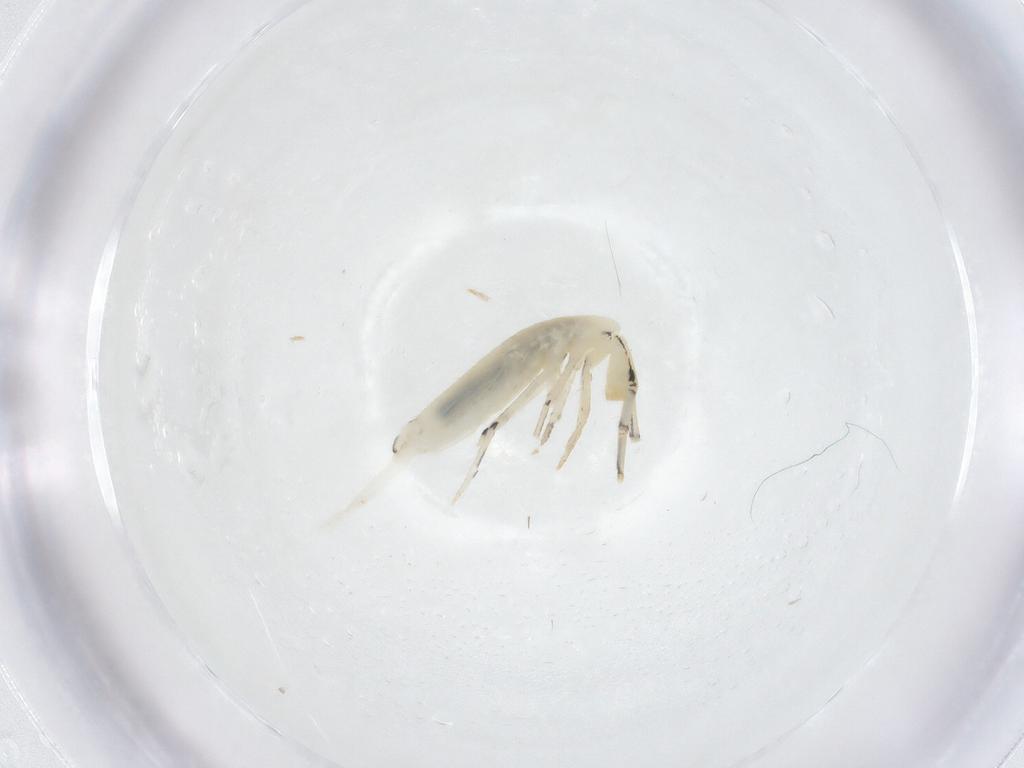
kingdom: Animalia
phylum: Arthropoda
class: Collembola
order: Entomobryomorpha
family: Entomobryidae
